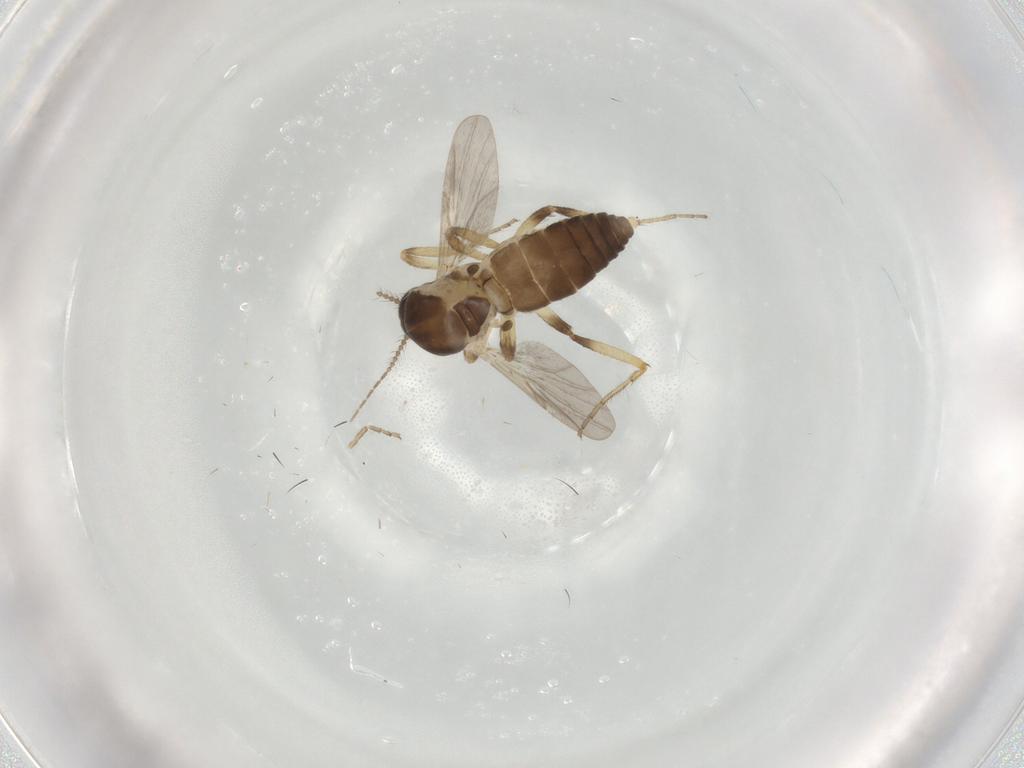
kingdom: Animalia
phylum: Arthropoda
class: Insecta
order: Diptera
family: Ceratopogonidae
